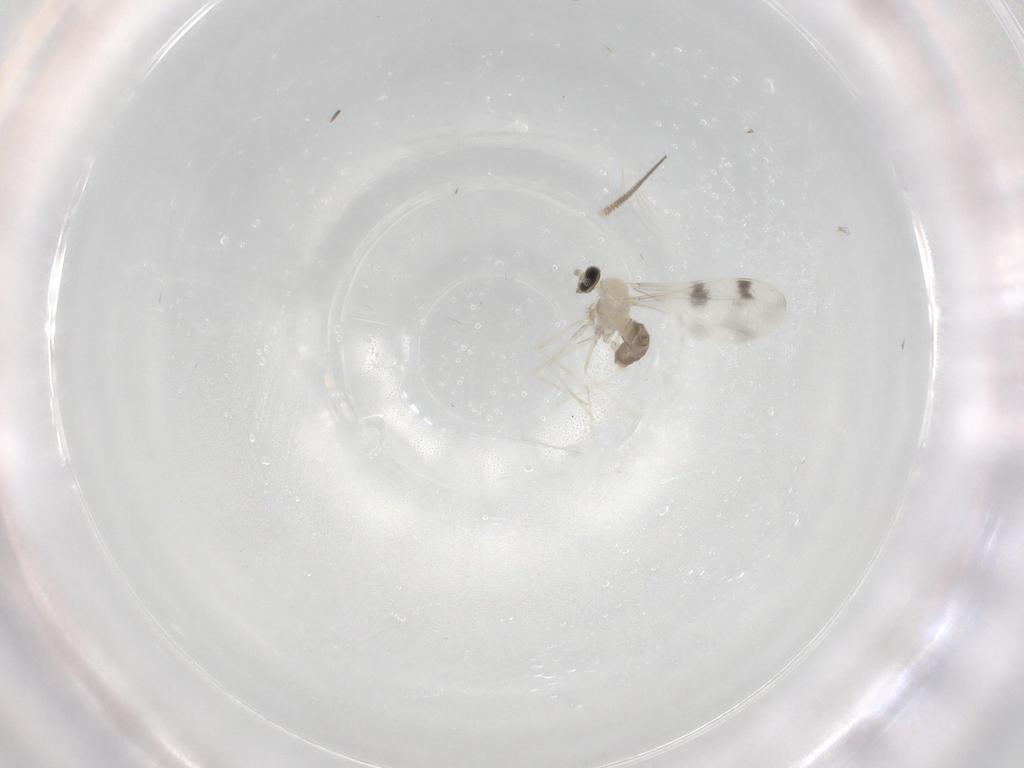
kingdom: Animalia
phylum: Arthropoda
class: Insecta
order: Diptera
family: Cecidomyiidae
